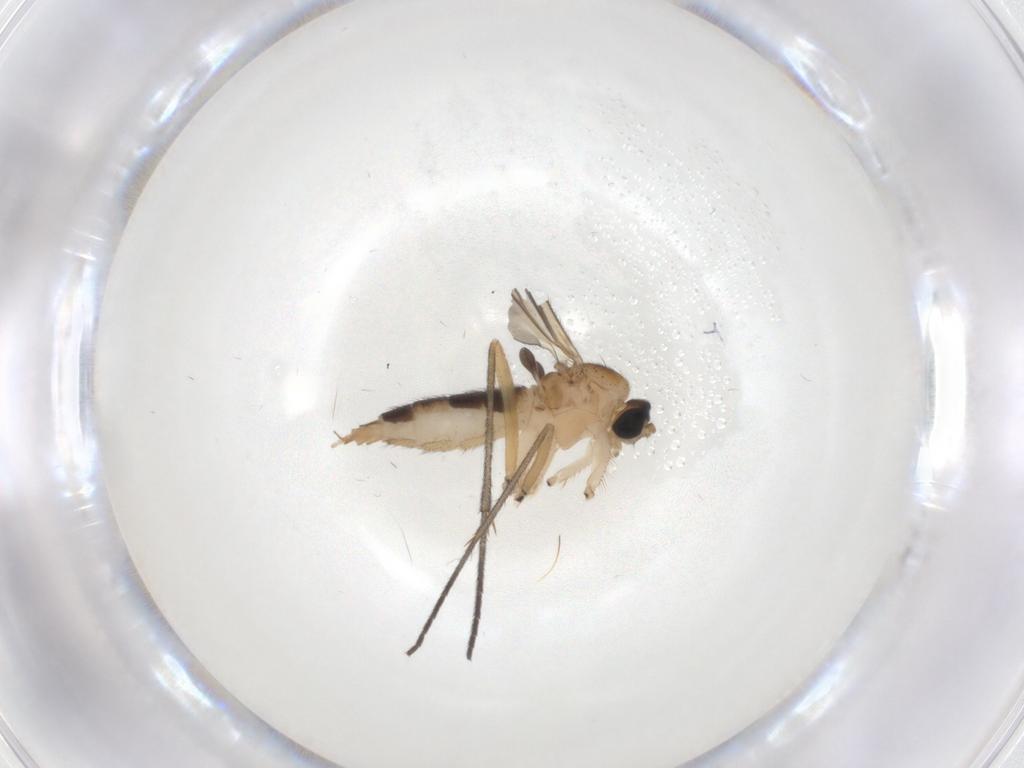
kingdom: Animalia
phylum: Arthropoda
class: Insecta
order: Diptera
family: Sciaridae
